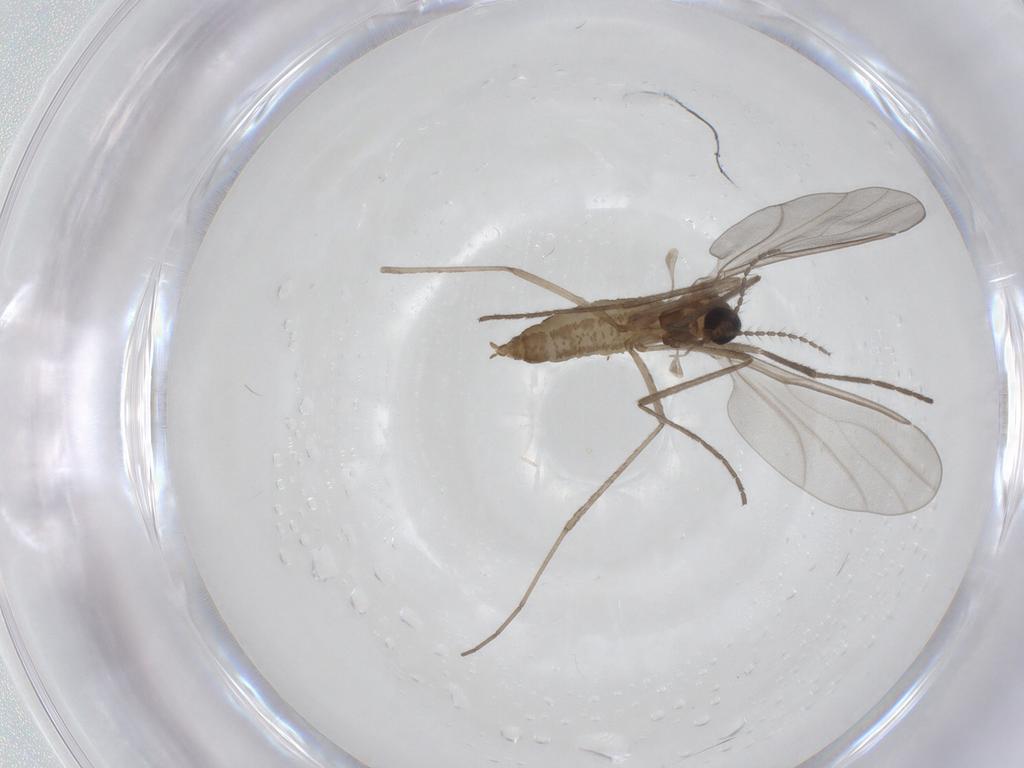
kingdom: Animalia
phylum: Arthropoda
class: Insecta
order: Diptera
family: Cecidomyiidae
